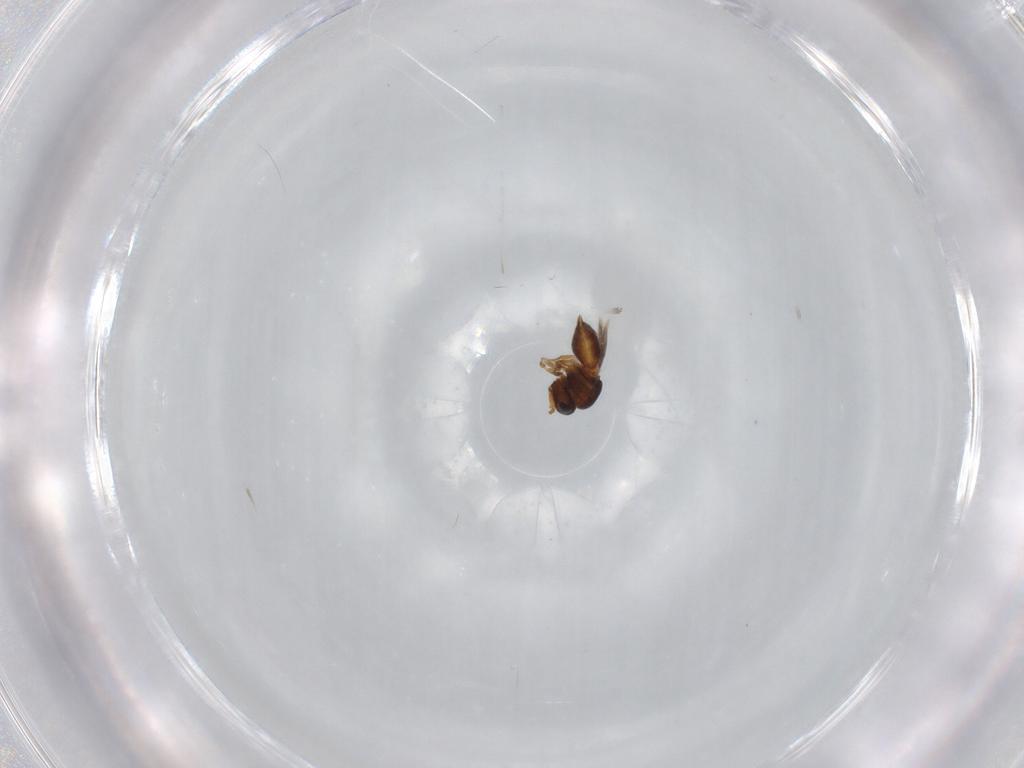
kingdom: Animalia
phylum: Arthropoda
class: Insecta
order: Hymenoptera
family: Scelionidae
